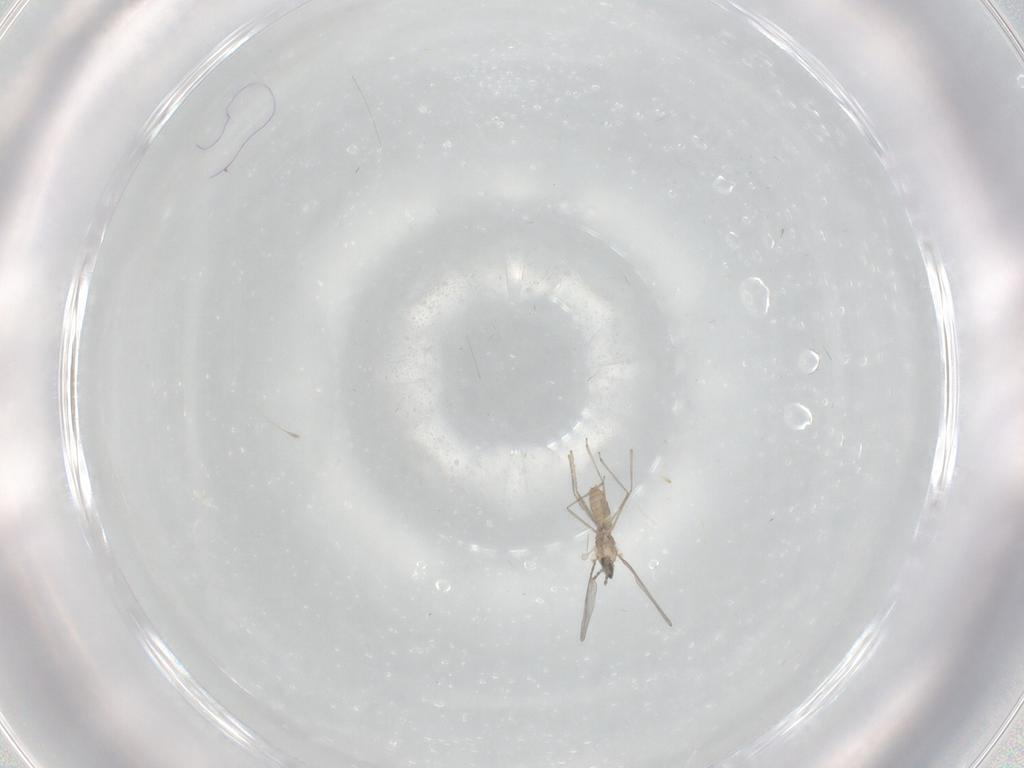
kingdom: Animalia
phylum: Arthropoda
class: Insecta
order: Diptera
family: Cecidomyiidae
